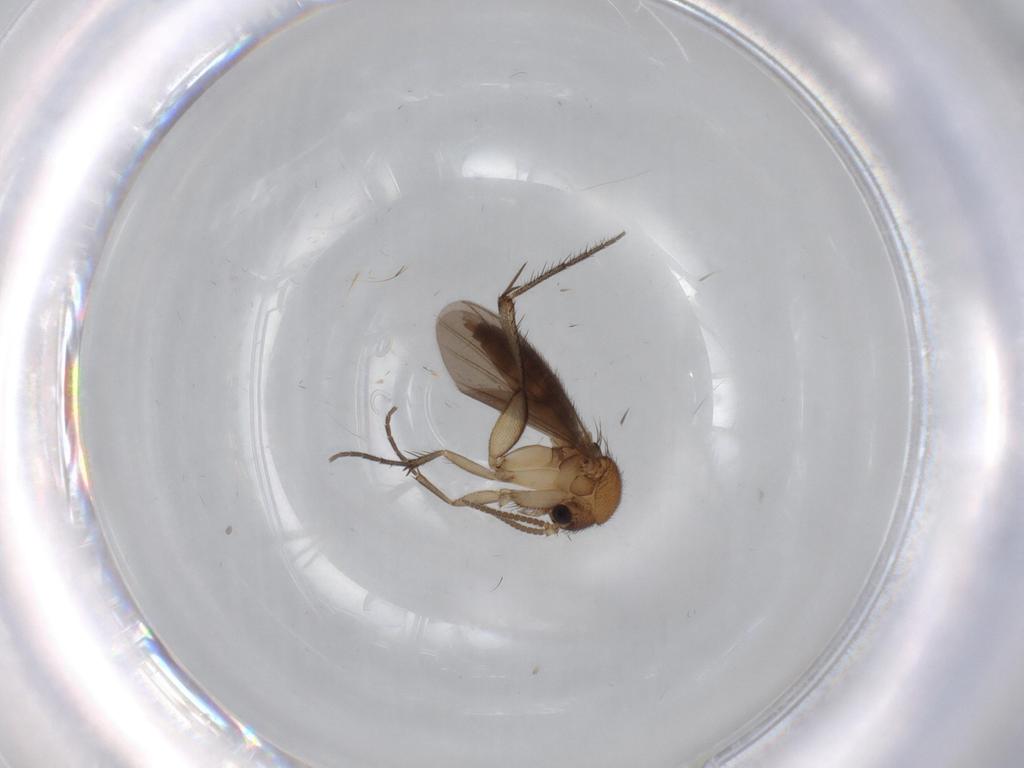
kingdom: Animalia
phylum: Arthropoda
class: Insecta
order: Diptera
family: Mycetophilidae
